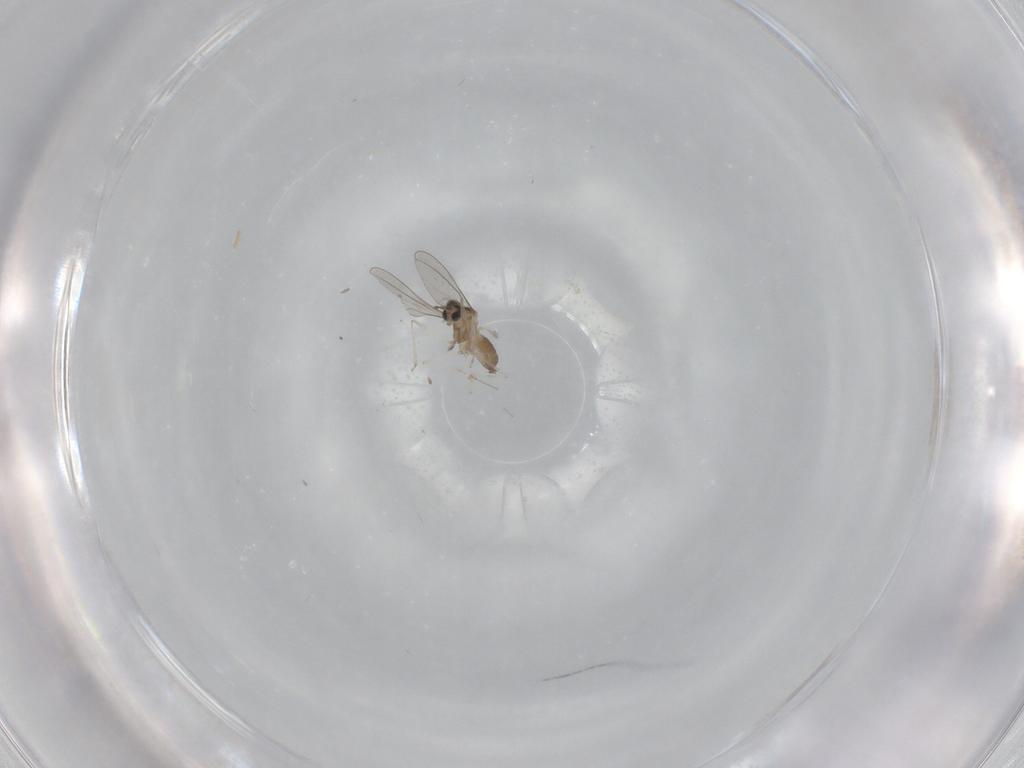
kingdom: Animalia
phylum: Arthropoda
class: Insecta
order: Diptera
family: Cecidomyiidae
